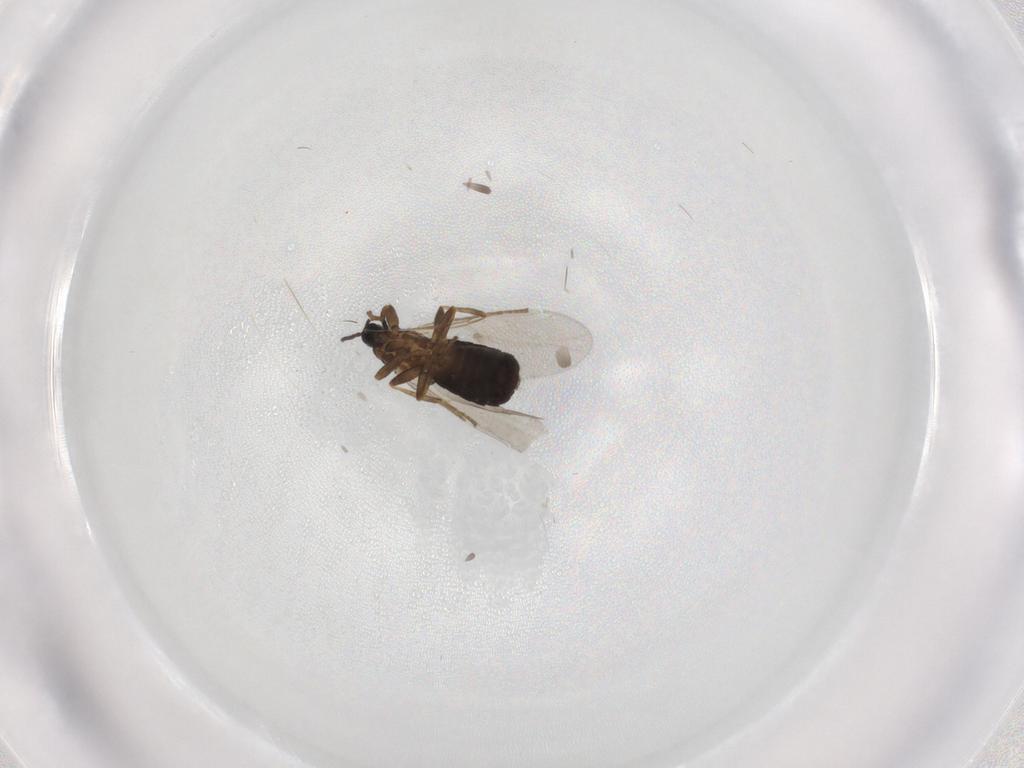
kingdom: Animalia
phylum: Arthropoda
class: Insecta
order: Diptera
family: Scatopsidae
